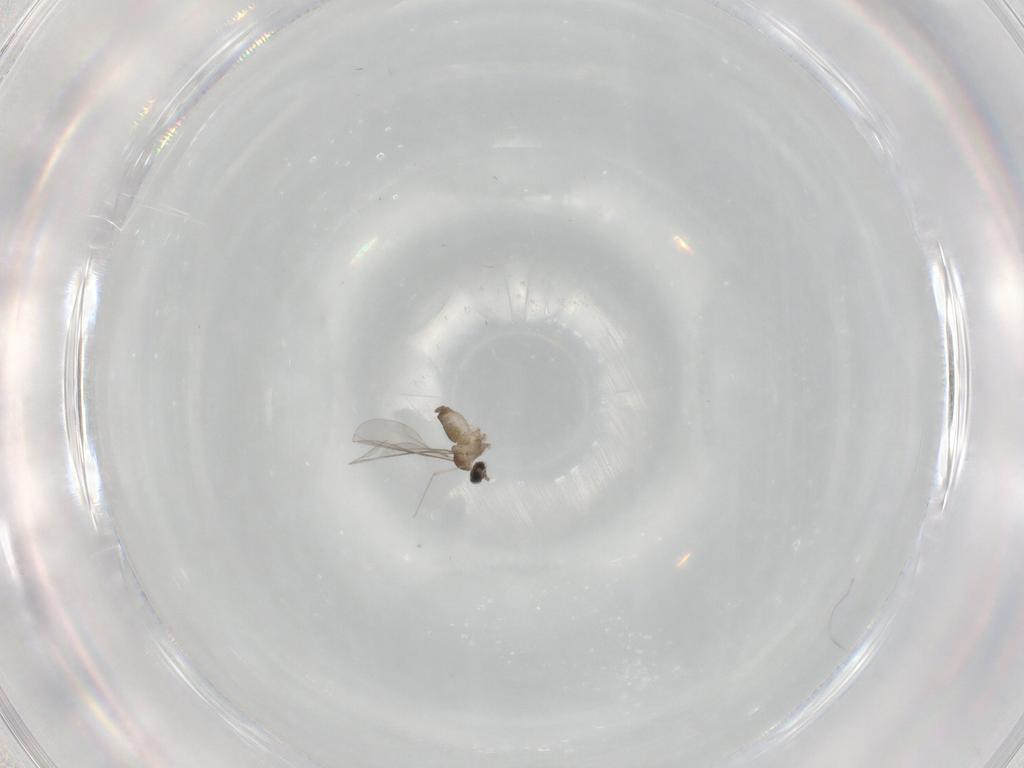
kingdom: Animalia
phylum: Arthropoda
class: Insecta
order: Diptera
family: Cecidomyiidae
